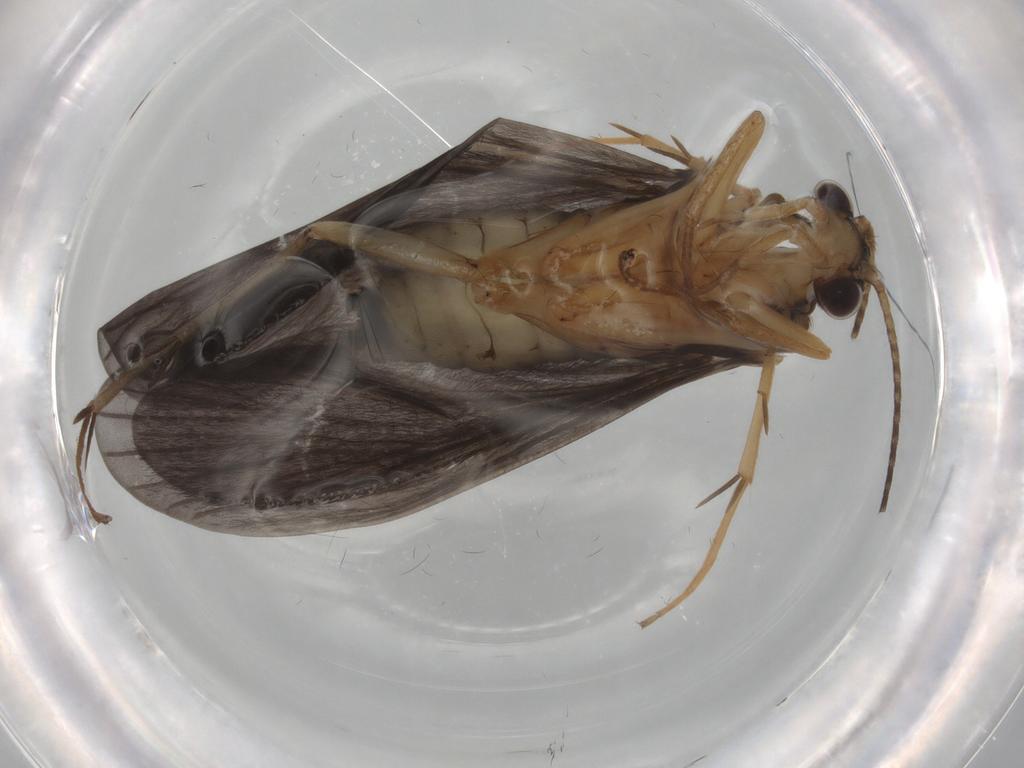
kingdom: Animalia
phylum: Arthropoda
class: Insecta
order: Trichoptera
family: Philopotamidae
